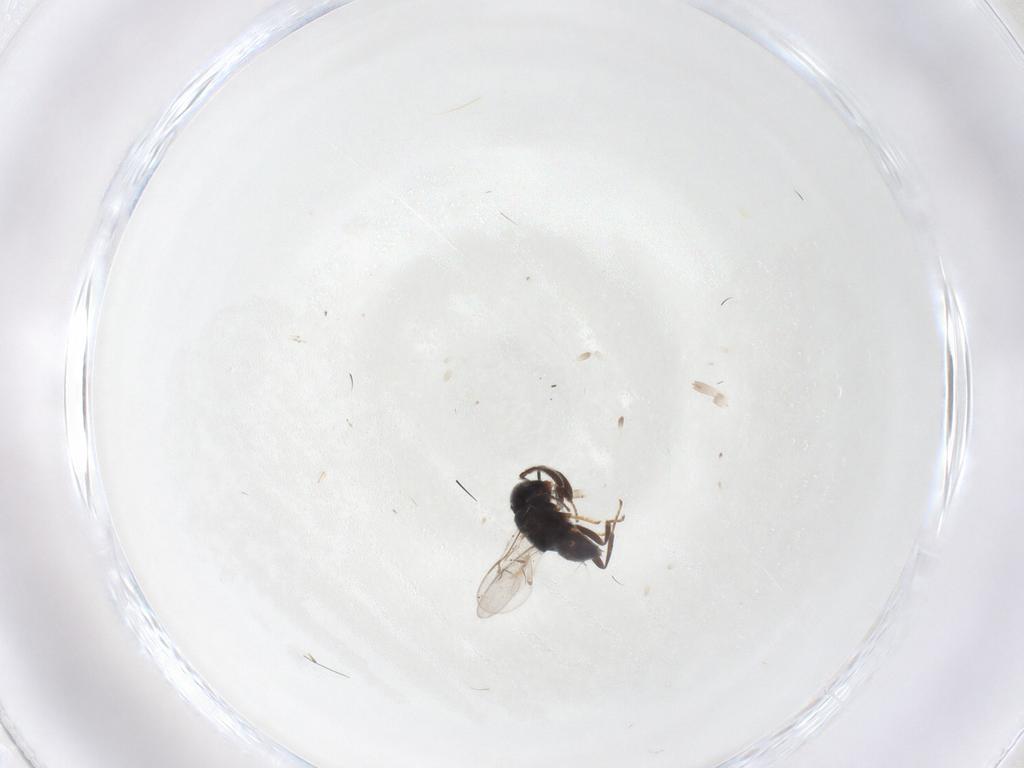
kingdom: Animalia
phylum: Arthropoda
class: Insecta
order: Hymenoptera
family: Eulophidae
